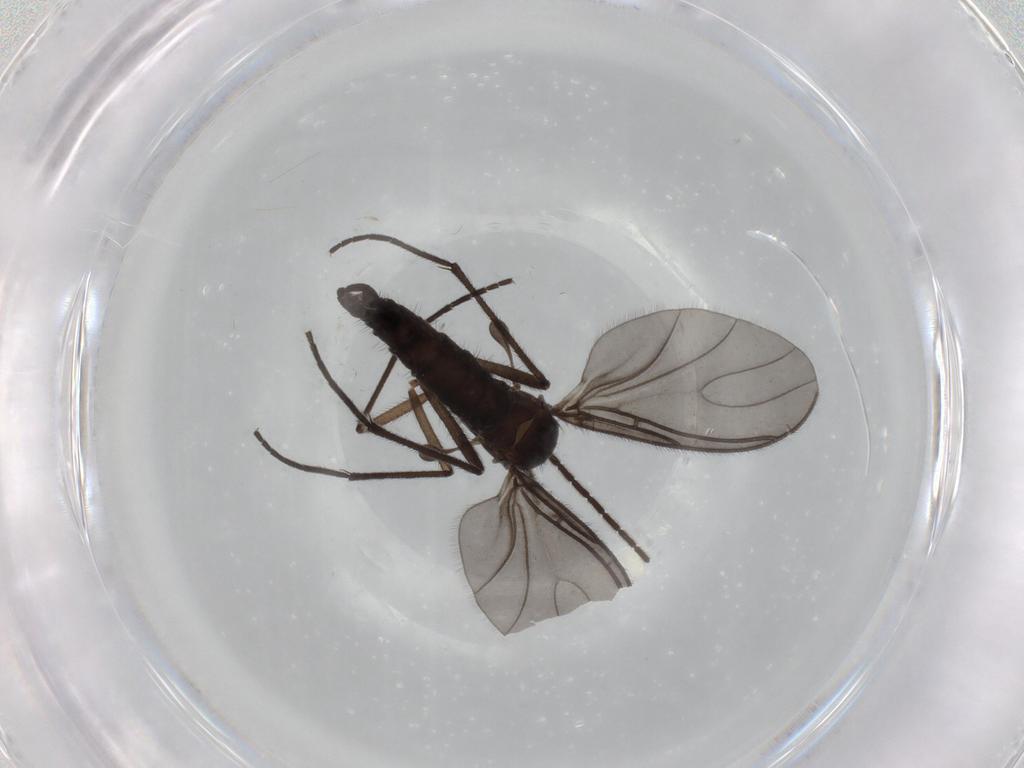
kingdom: Animalia
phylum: Arthropoda
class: Insecta
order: Diptera
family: Sciaridae
